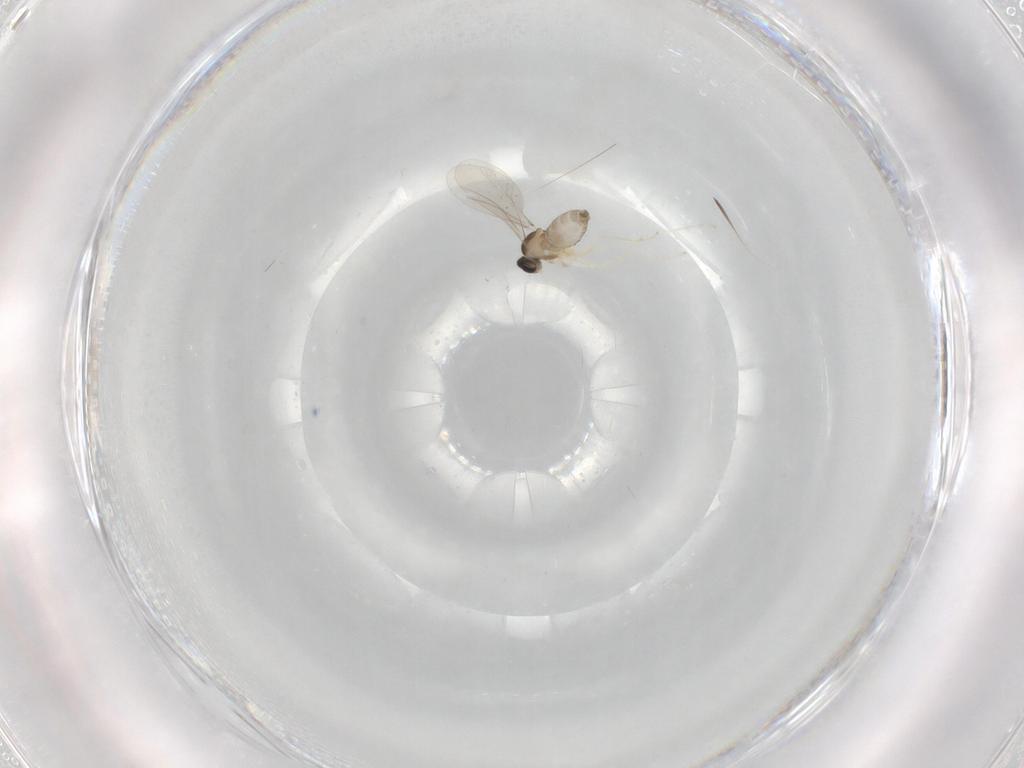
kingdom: Animalia
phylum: Arthropoda
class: Insecta
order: Diptera
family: Cecidomyiidae
